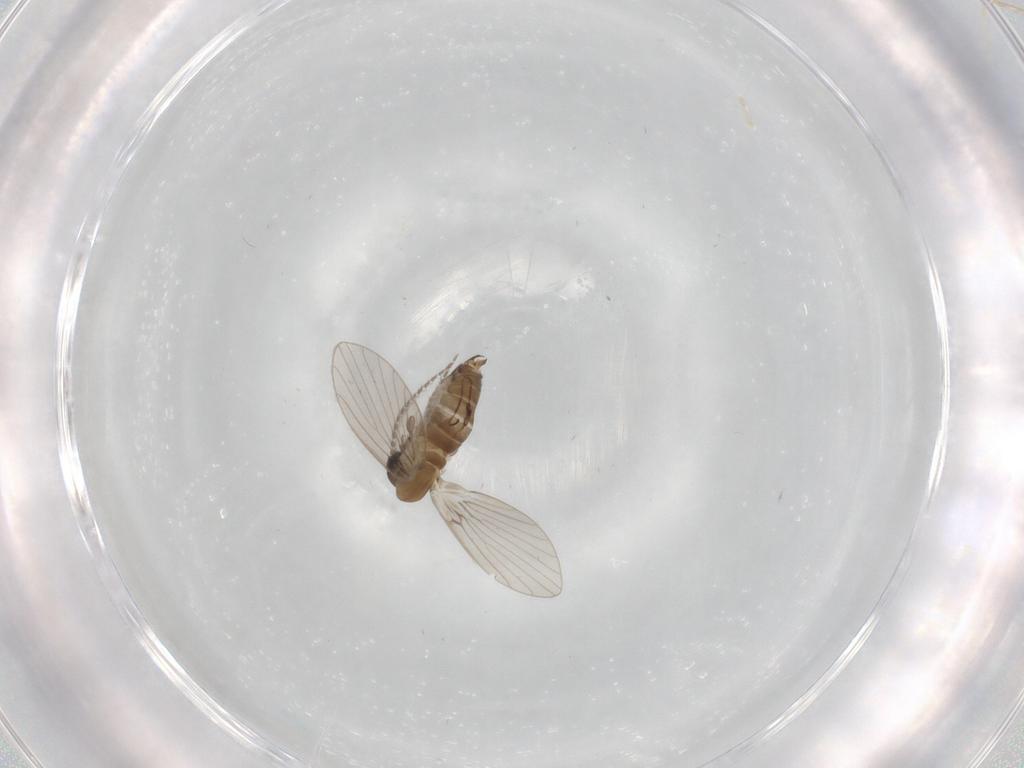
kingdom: Animalia
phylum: Arthropoda
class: Insecta
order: Diptera
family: Psychodidae
